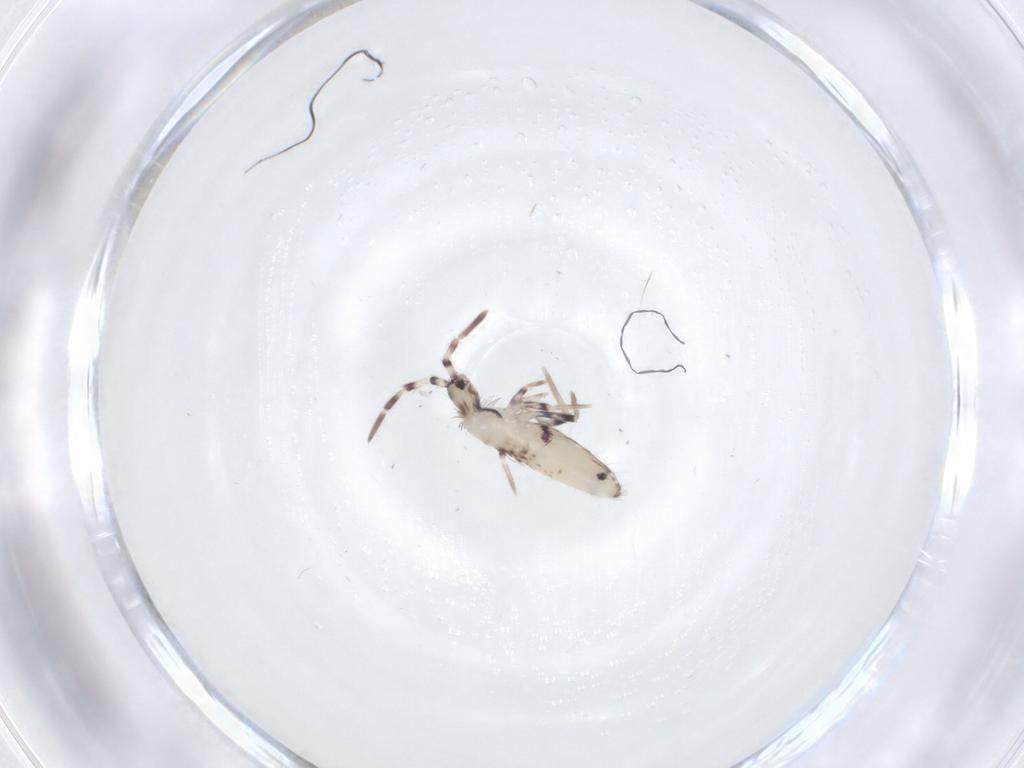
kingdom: Animalia
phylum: Arthropoda
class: Collembola
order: Entomobryomorpha
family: Entomobryidae
